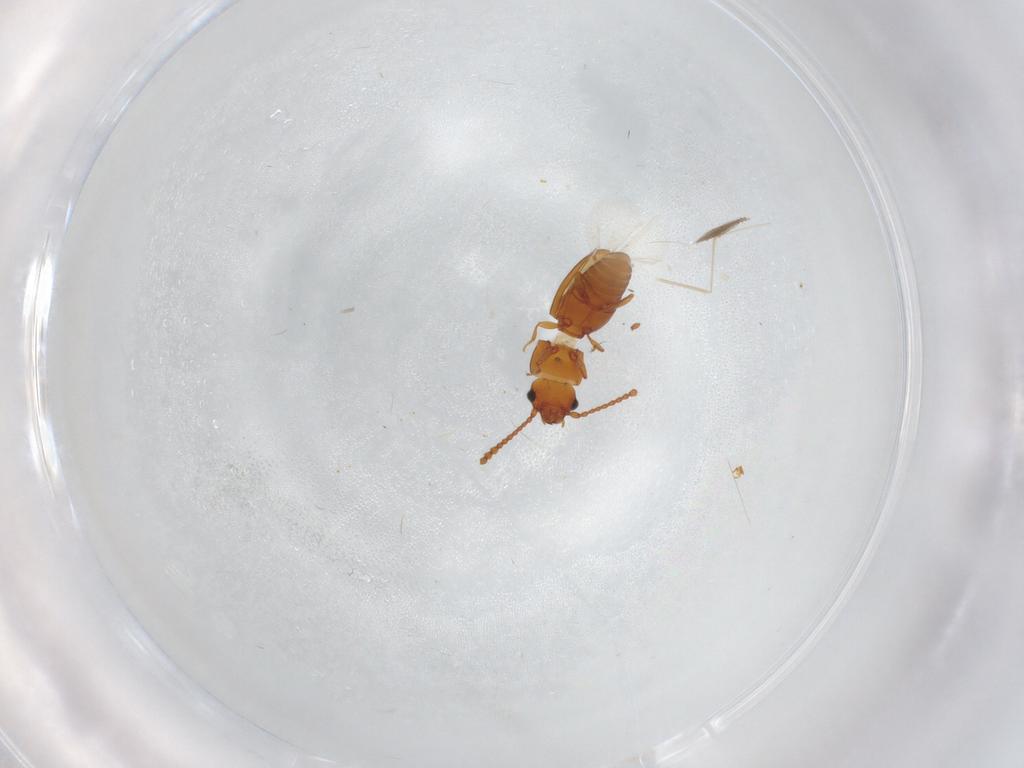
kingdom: Animalia
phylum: Arthropoda
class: Insecta
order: Coleoptera
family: Laemophloeidae
